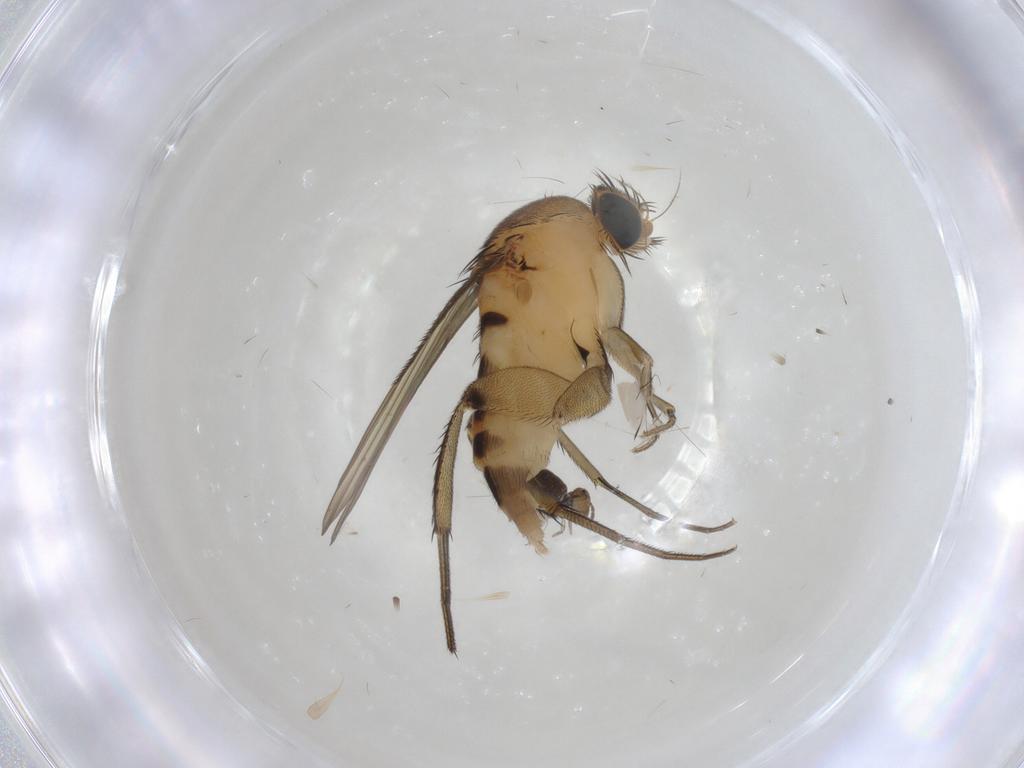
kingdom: Animalia
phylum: Arthropoda
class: Insecta
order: Diptera
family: Phoridae
